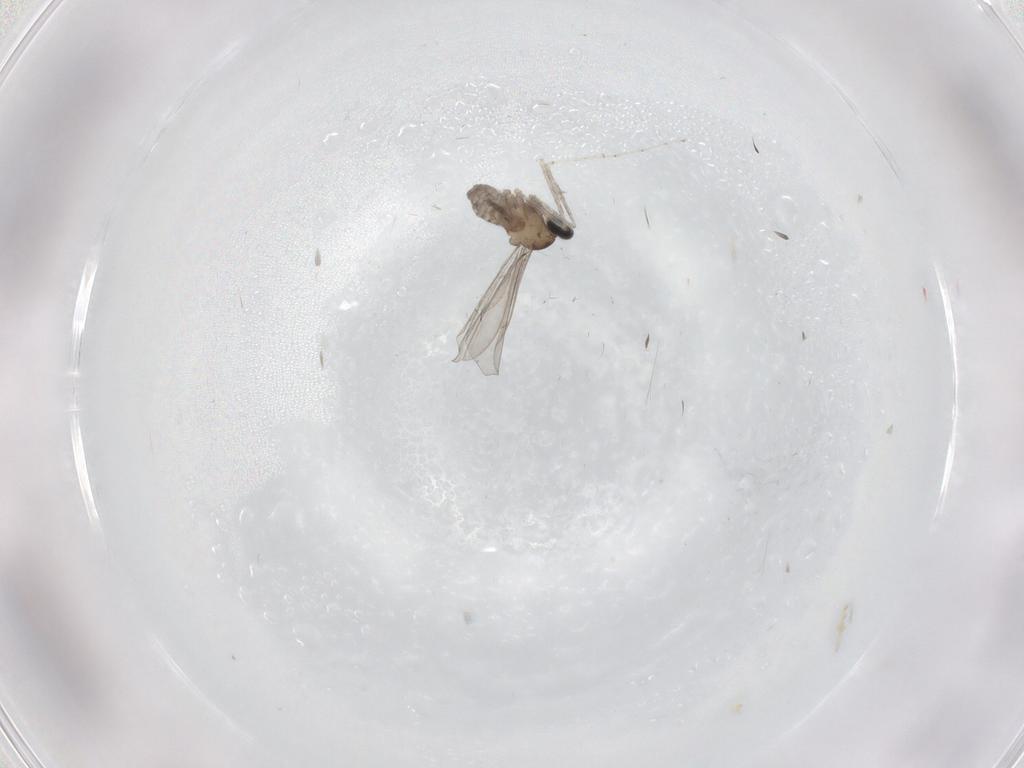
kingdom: Animalia
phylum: Arthropoda
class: Insecta
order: Diptera
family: Cecidomyiidae
